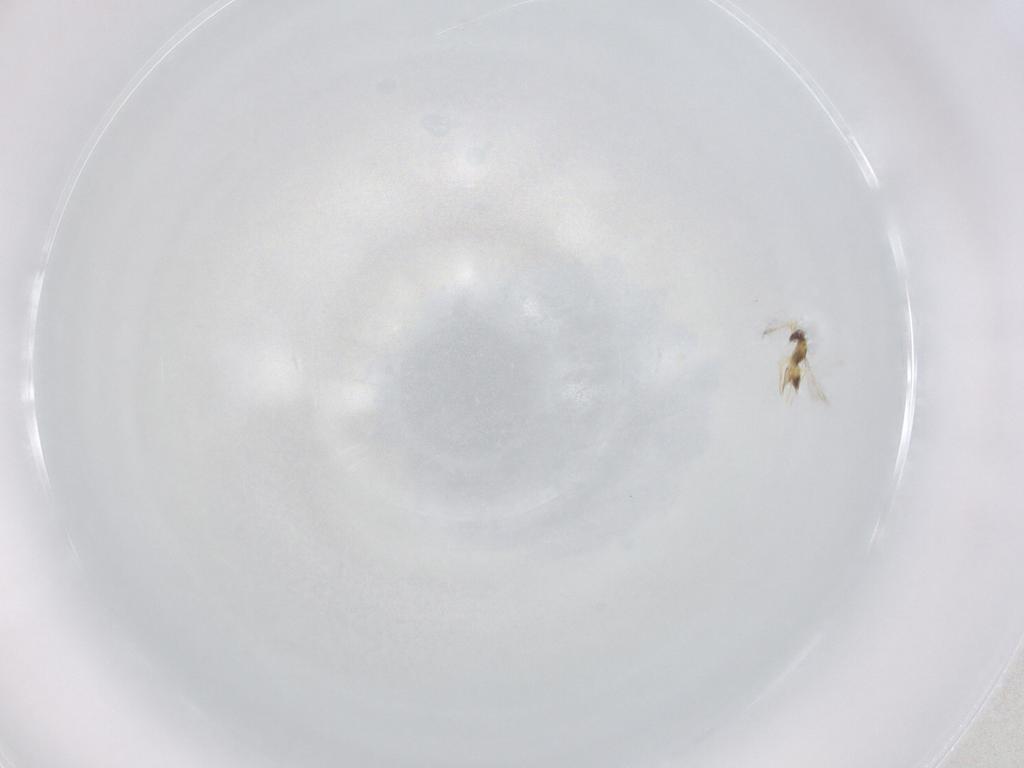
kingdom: Animalia
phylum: Arthropoda
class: Insecta
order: Hymenoptera
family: Mymaridae
